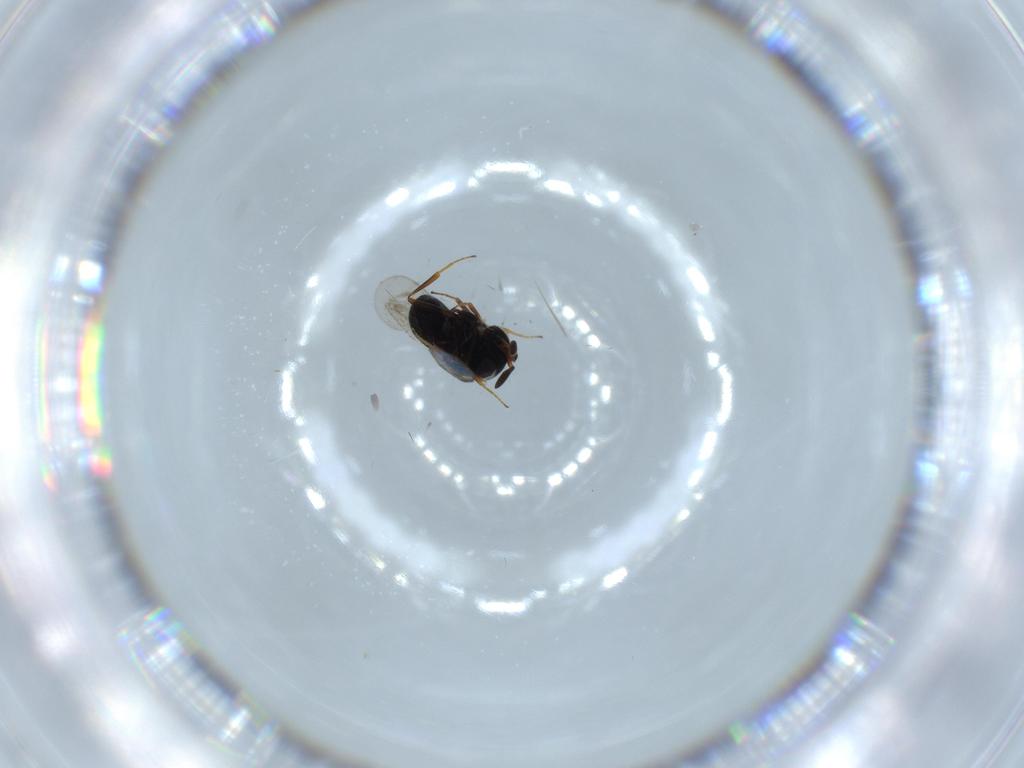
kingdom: Animalia
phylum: Arthropoda
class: Insecta
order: Hymenoptera
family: Scelionidae
